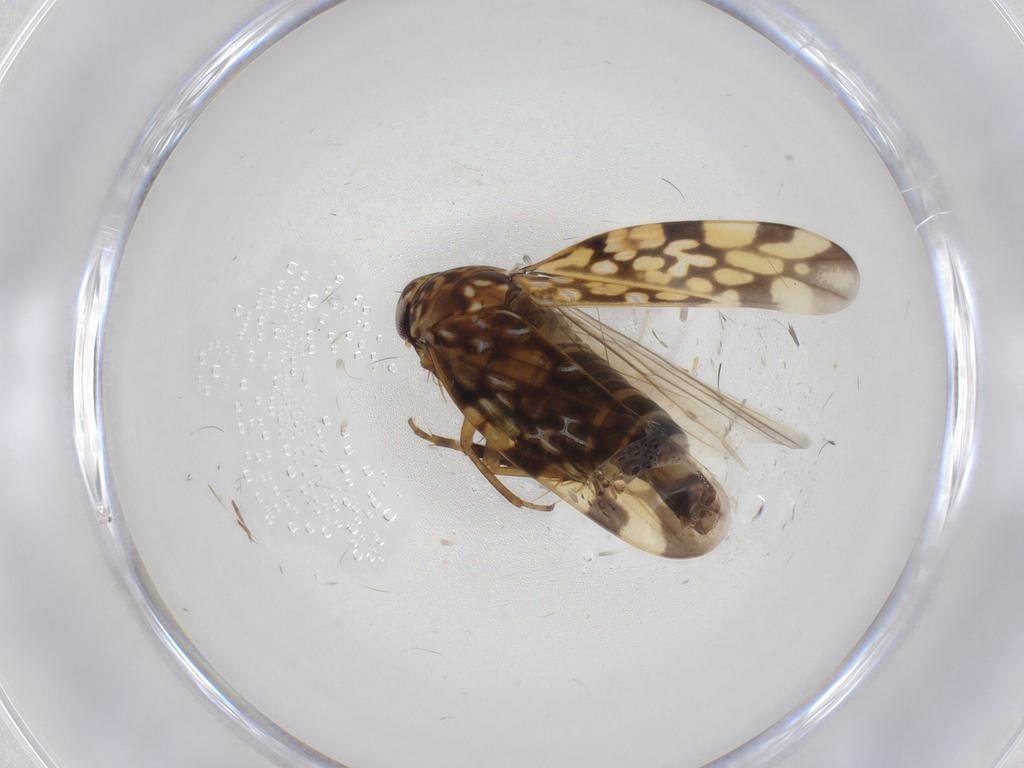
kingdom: Animalia
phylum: Arthropoda
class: Insecta
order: Hemiptera
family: Cicadellidae
